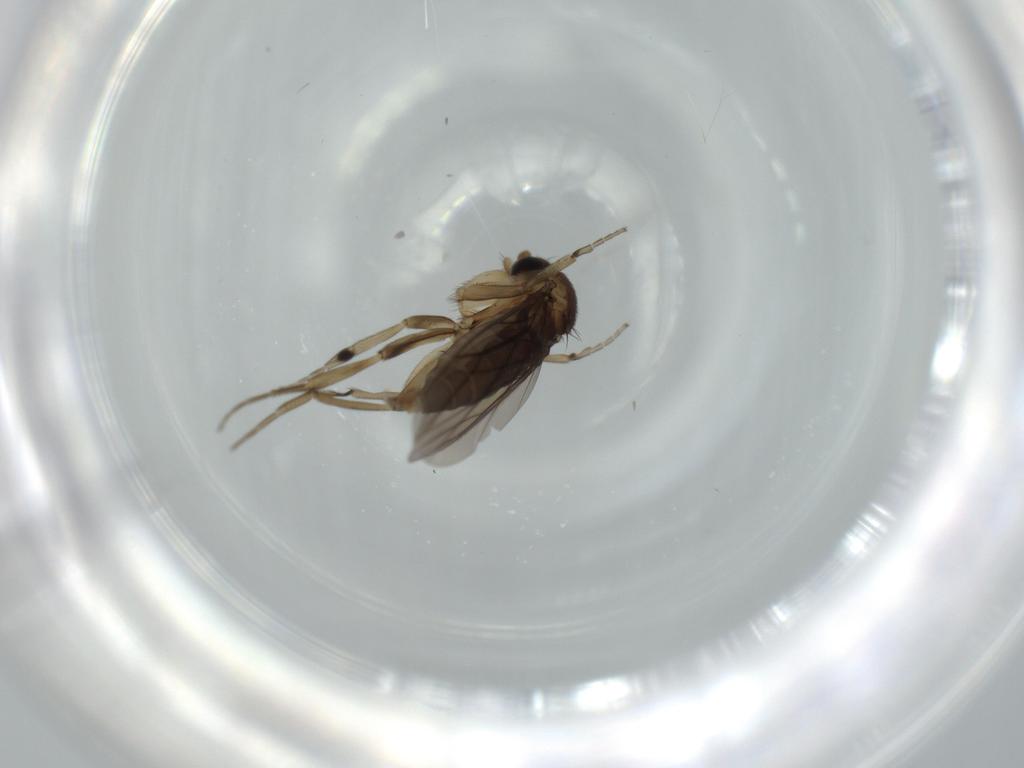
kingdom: Animalia
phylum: Arthropoda
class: Insecta
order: Diptera
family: Phoridae
